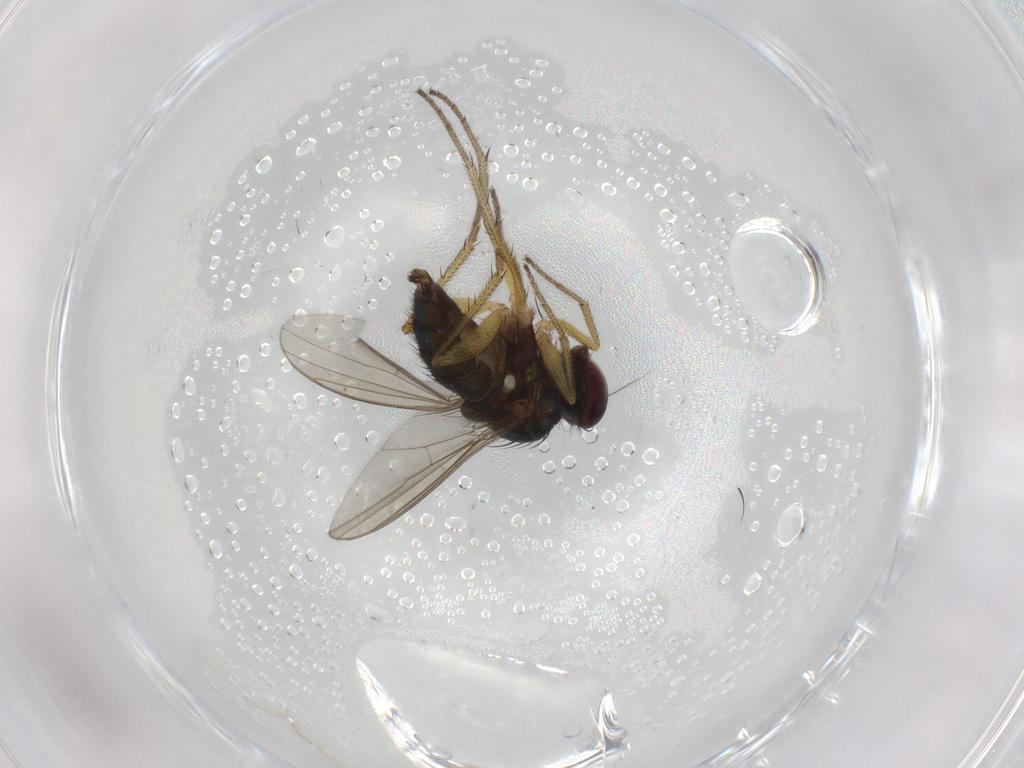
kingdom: Animalia
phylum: Arthropoda
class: Insecta
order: Diptera
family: Dolichopodidae
